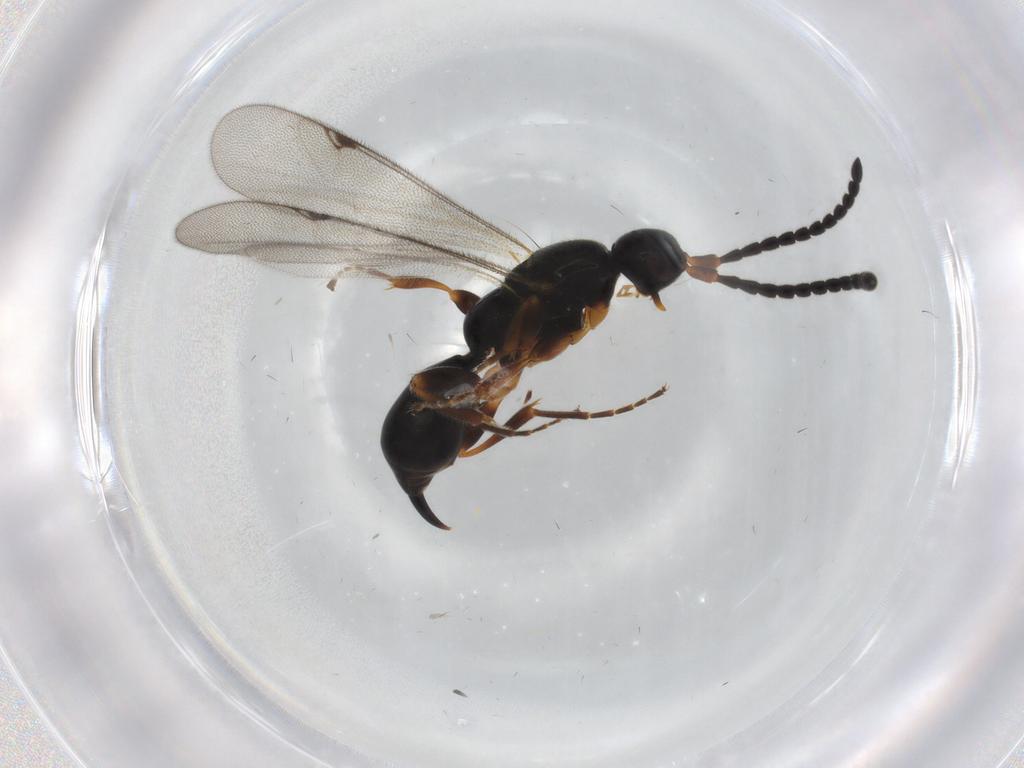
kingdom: Animalia
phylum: Arthropoda
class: Insecta
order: Hymenoptera
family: Proctotrupidae
